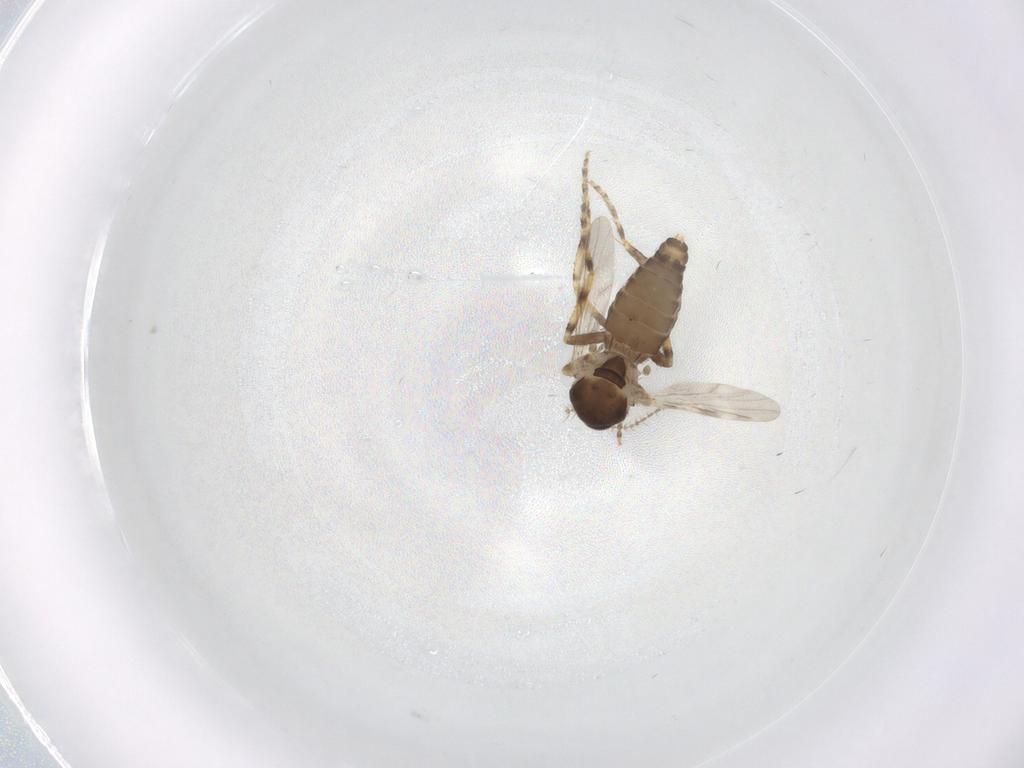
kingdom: Animalia
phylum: Arthropoda
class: Insecta
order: Diptera
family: Ceratopogonidae
